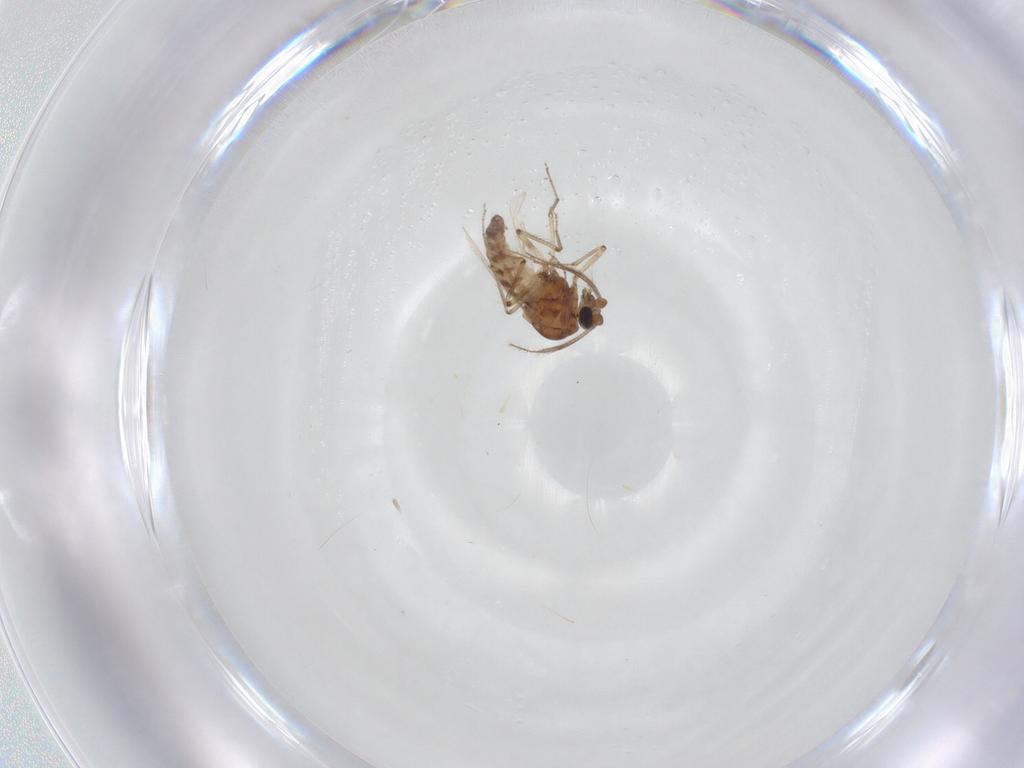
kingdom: Animalia
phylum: Arthropoda
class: Insecta
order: Diptera
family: Ceratopogonidae
